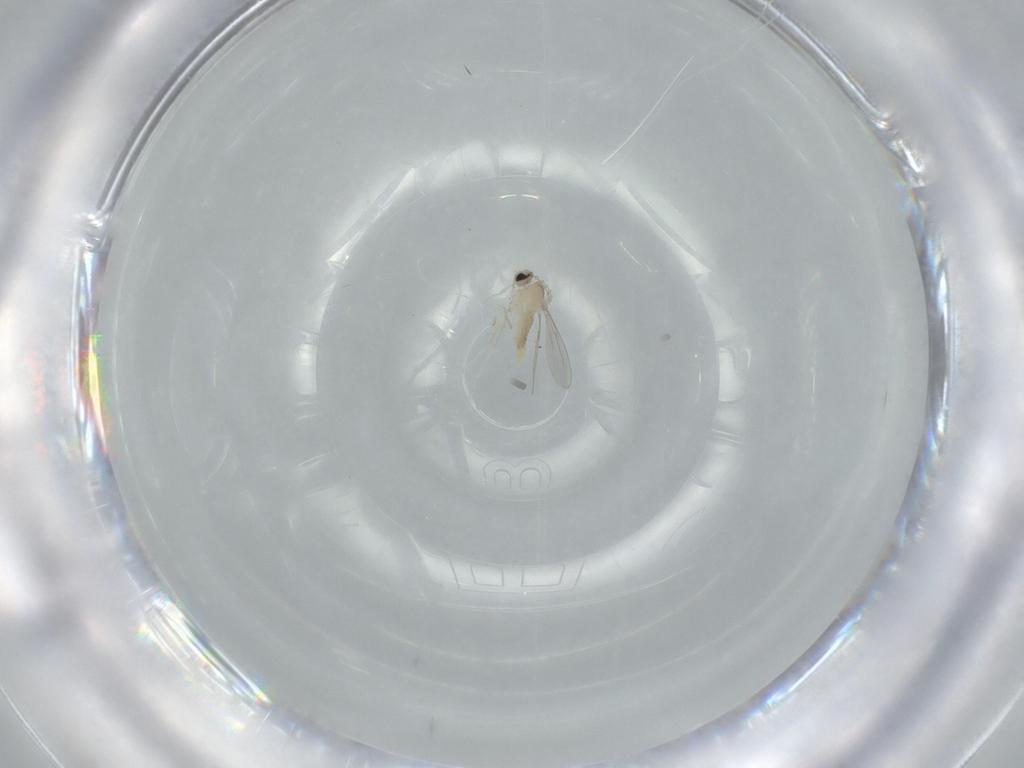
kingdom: Animalia
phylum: Arthropoda
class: Insecta
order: Diptera
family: Cecidomyiidae
